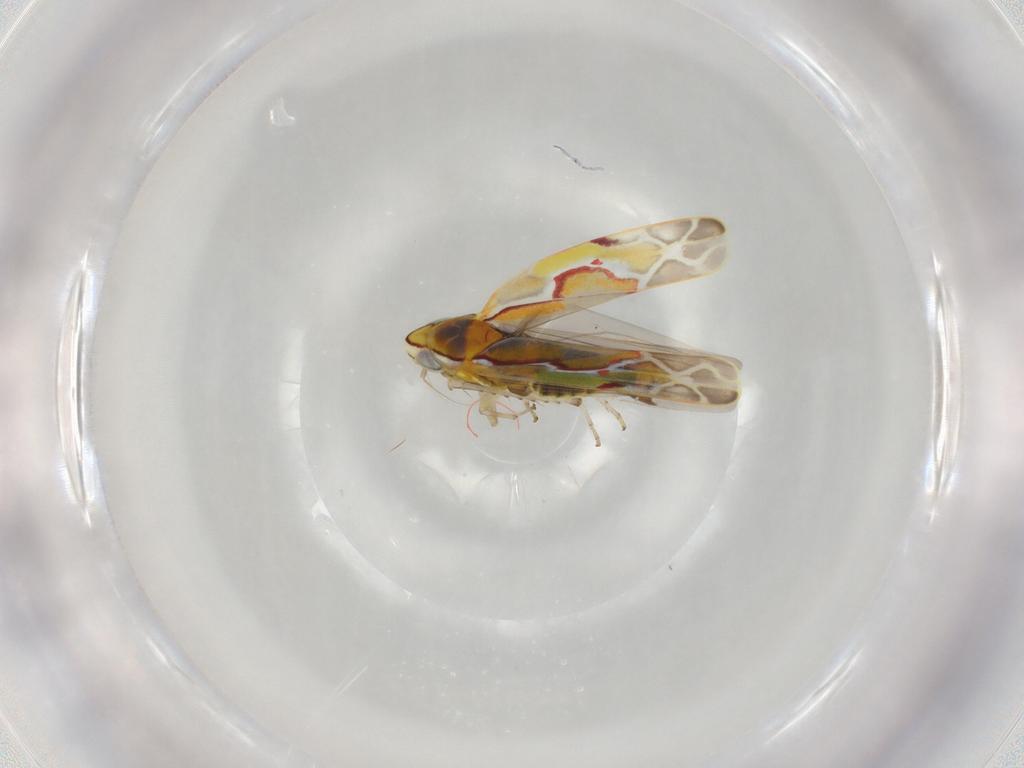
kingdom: Animalia
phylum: Arthropoda
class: Insecta
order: Hemiptera
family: Cicadellidae
